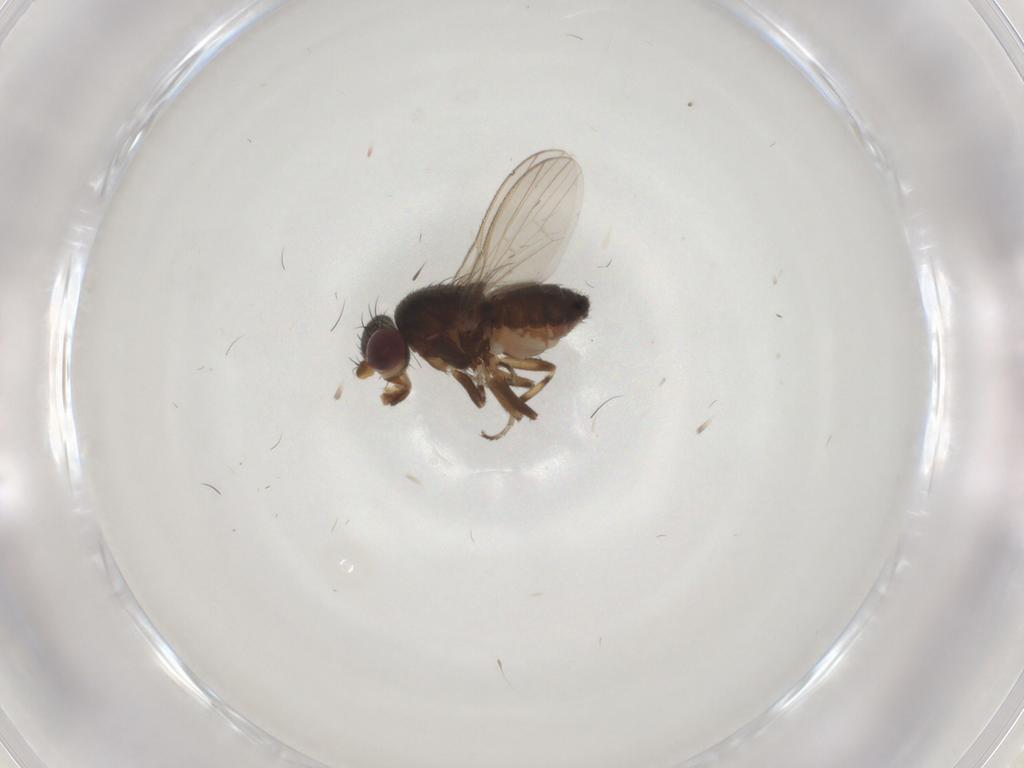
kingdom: Animalia
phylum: Arthropoda
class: Insecta
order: Diptera
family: Heleomyzidae
